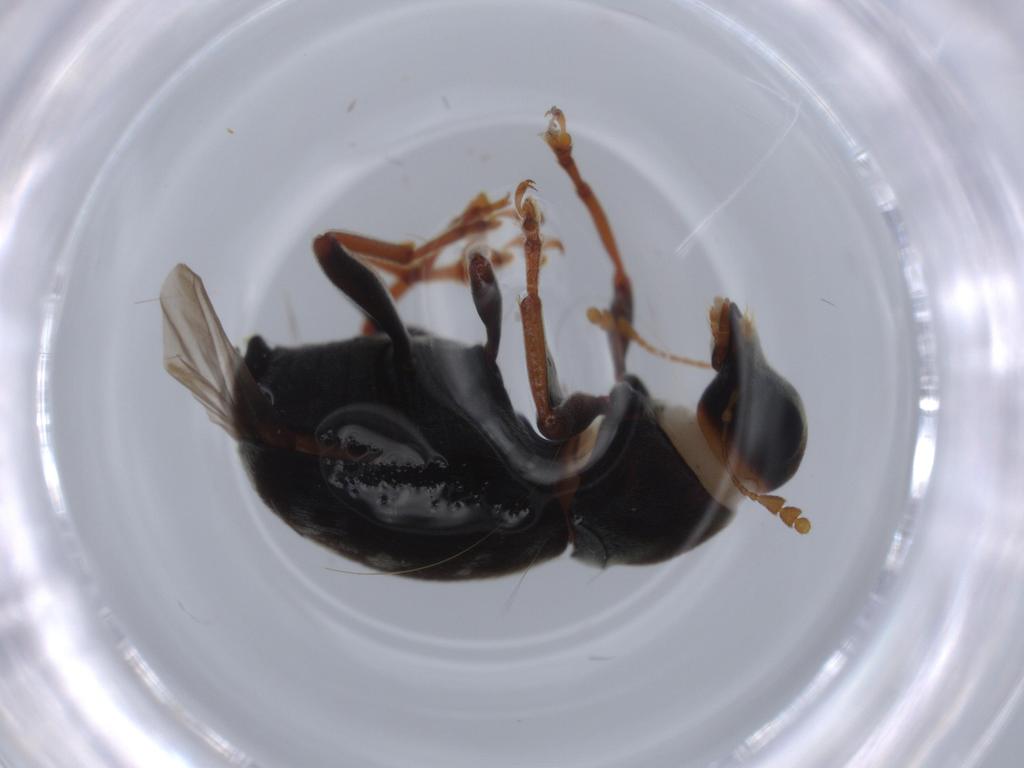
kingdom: Animalia
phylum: Arthropoda
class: Insecta
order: Coleoptera
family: Anthribidae
